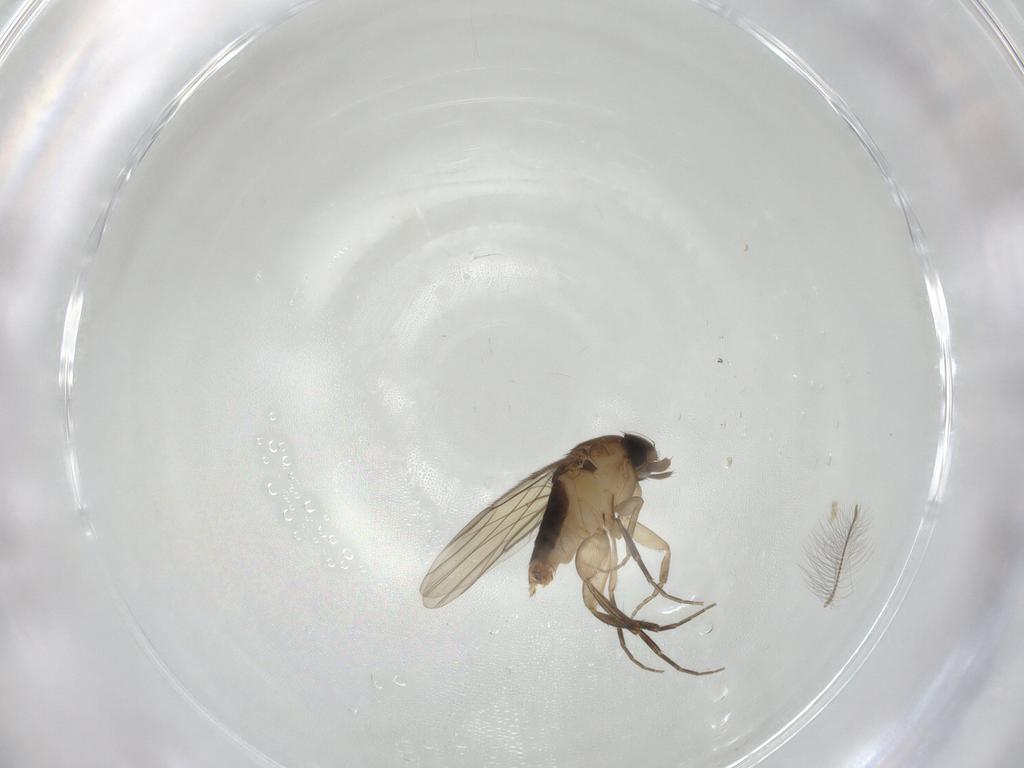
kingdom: Animalia
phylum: Arthropoda
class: Insecta
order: Diptera
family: Phoridae
